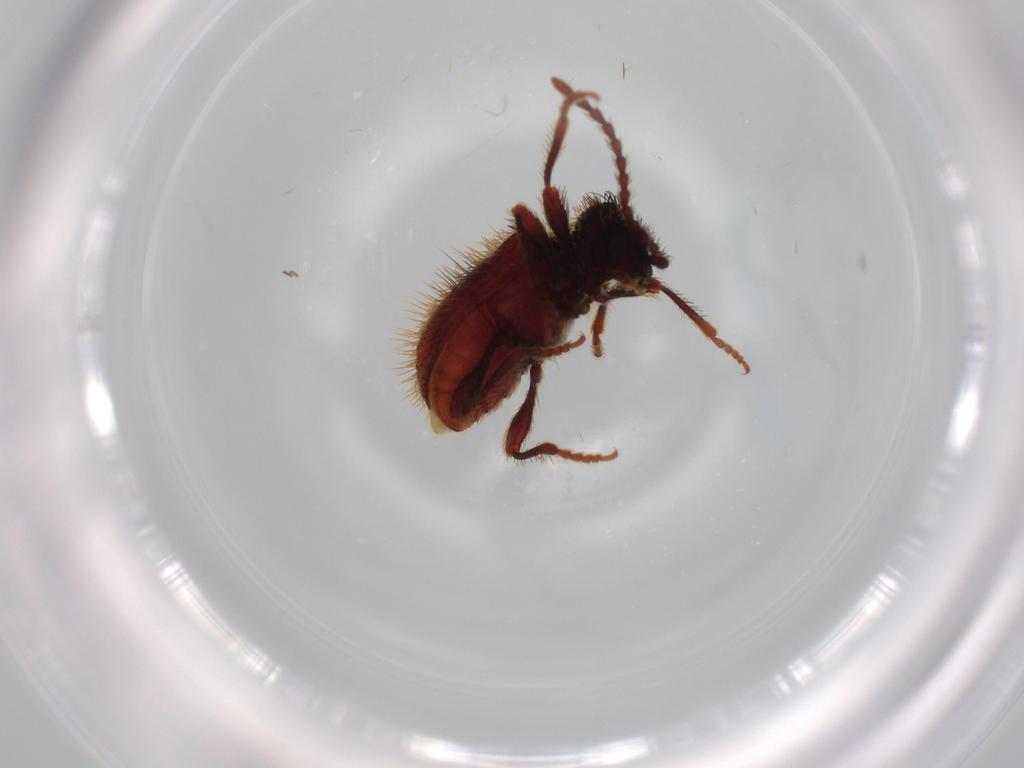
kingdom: Animalia
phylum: Arthropoda
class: Insecta
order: Coleoptera
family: Ptinidae
